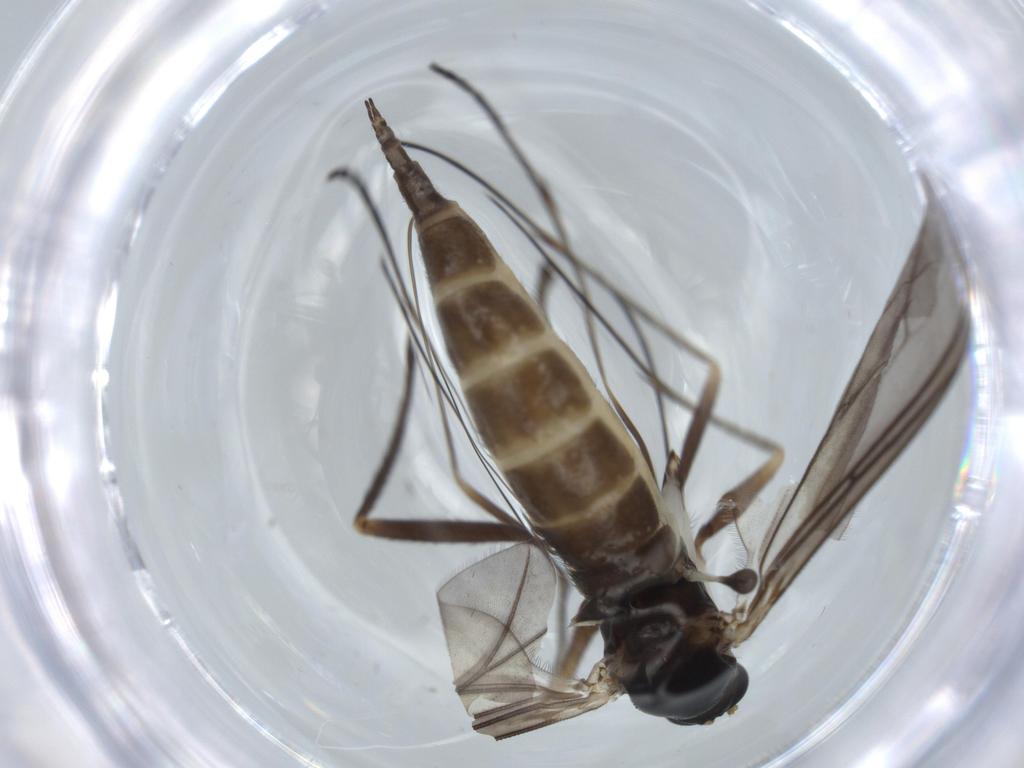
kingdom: Animalia
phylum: Arthropoda
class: Insecta
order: Diptera
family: Sciaridae
